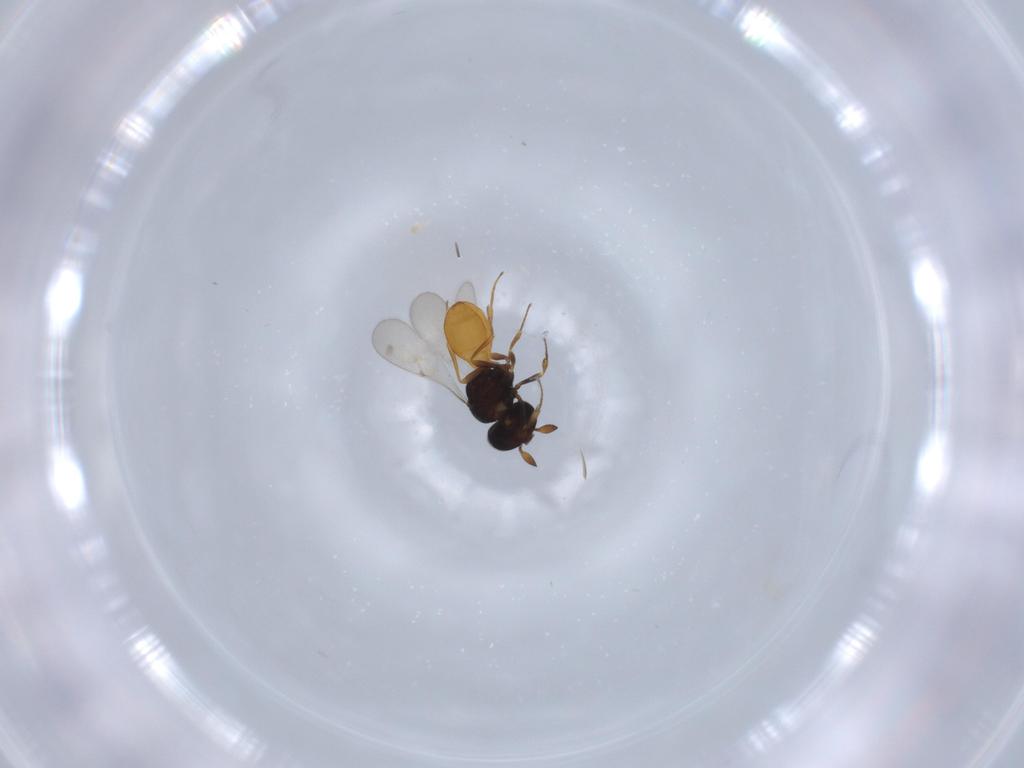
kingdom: Animalia
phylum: Arthropoda
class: Insecta
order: Hymenoptera
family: Scelionidae
